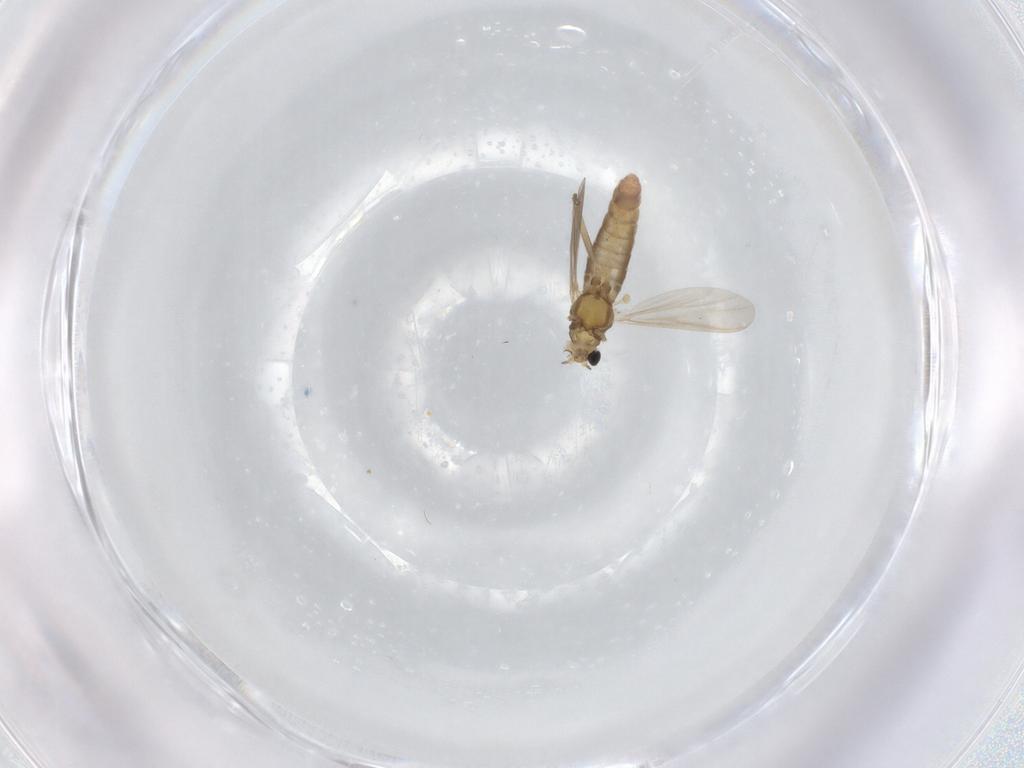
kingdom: Animalia
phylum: Arthropoda
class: Insecta
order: Diptera
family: Chironomidae
